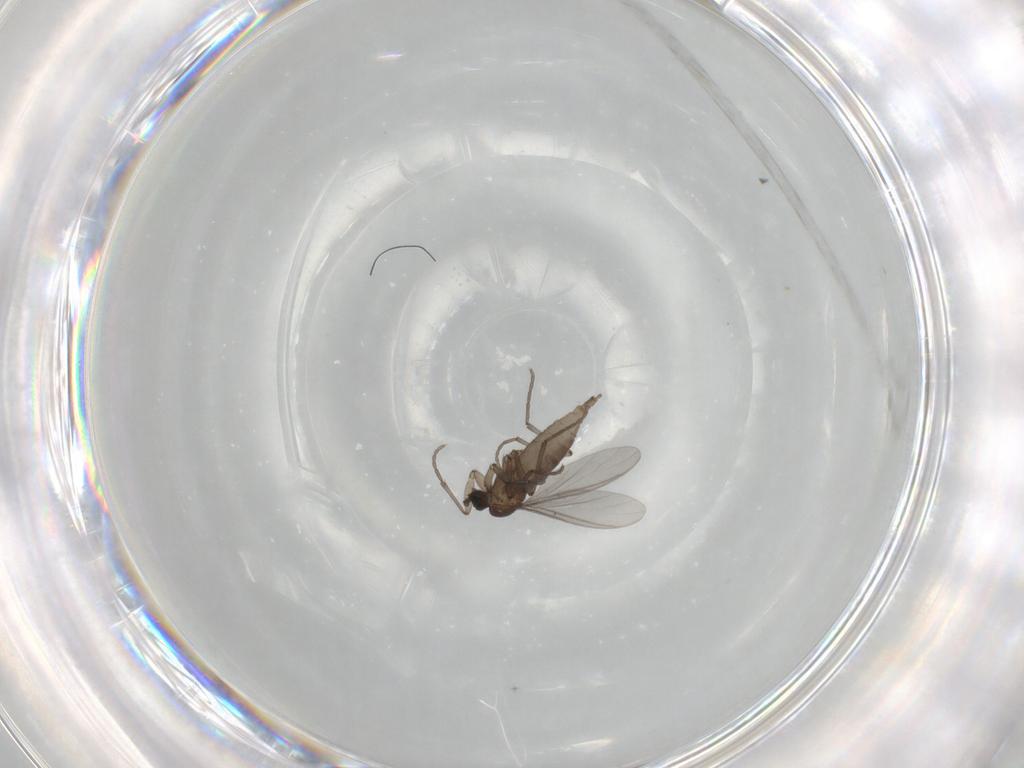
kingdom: Animalia
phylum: Arthropoda
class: Insecta
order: Diptera
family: Sciaridae
